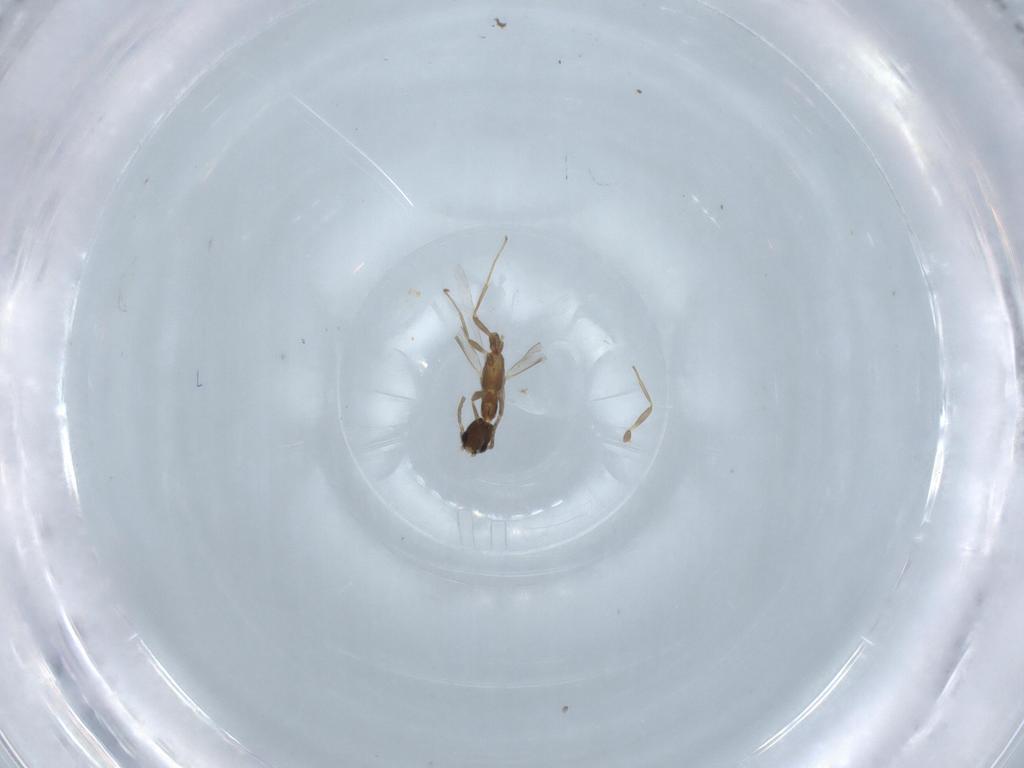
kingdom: Animalia
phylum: Arthropoda
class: Insecta
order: Hymenoptera
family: Formicidae
